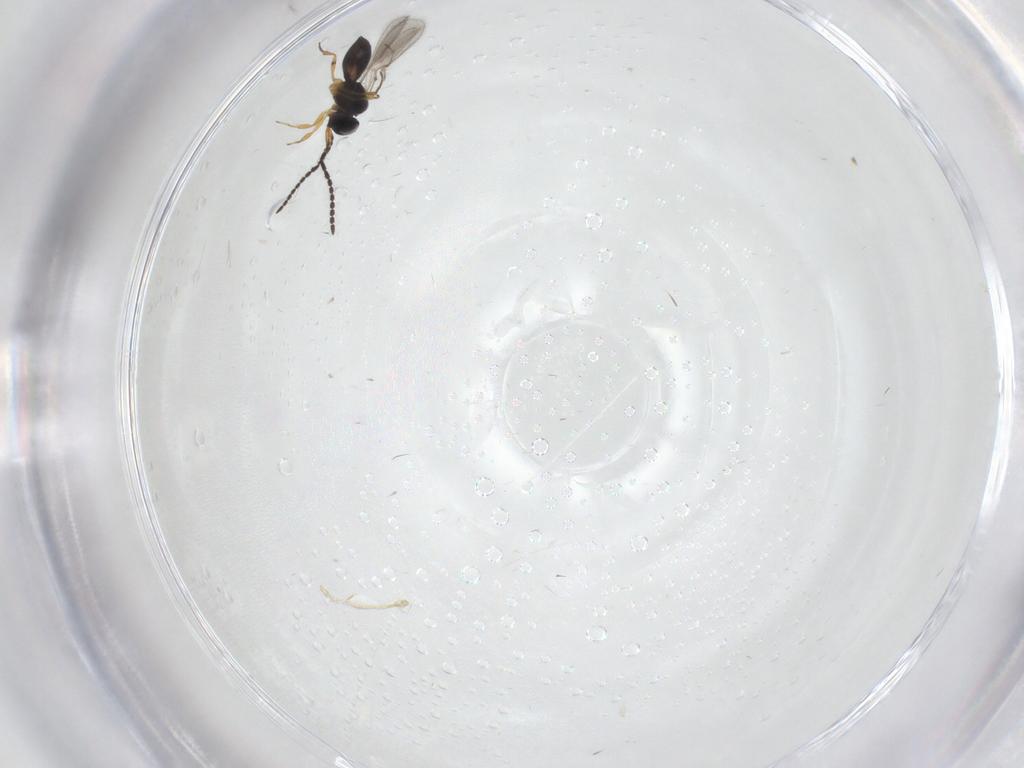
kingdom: Animalia
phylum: Arthropoda
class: Insecta
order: Hymenoptera
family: Scelionidae
